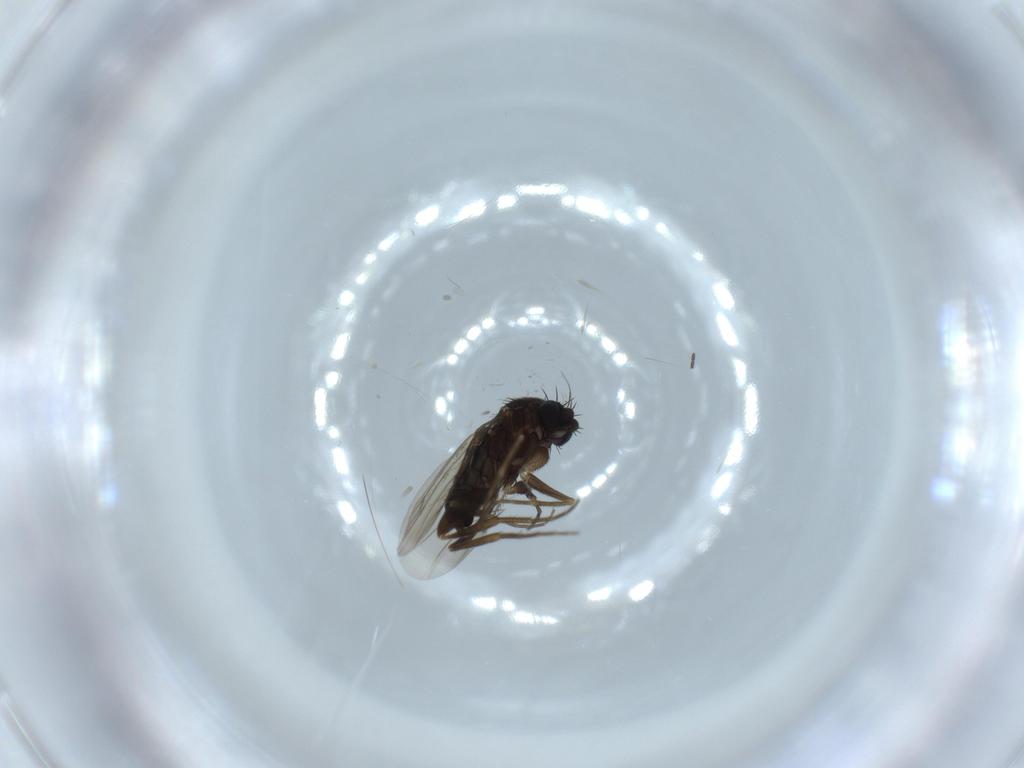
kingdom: Animalia
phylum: Arthropoda
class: Insecta
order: Diptera
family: Phoridae
